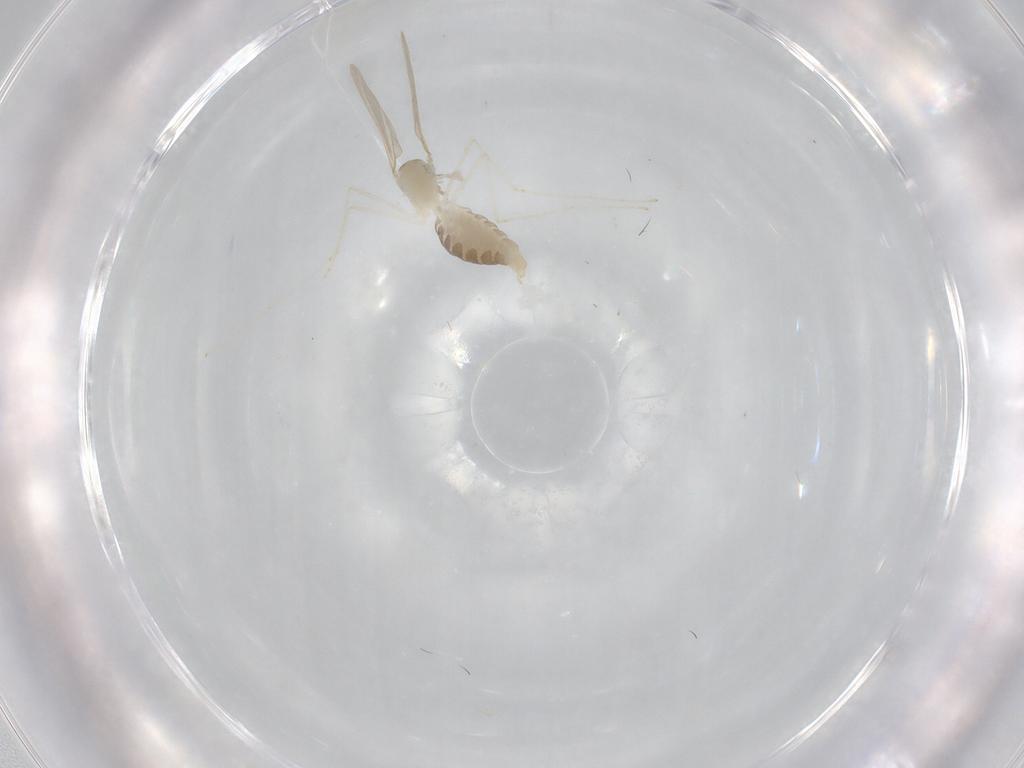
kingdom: Animalia
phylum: Arthropoda
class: Insecta
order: Diptera
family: Cecidomyiidae
